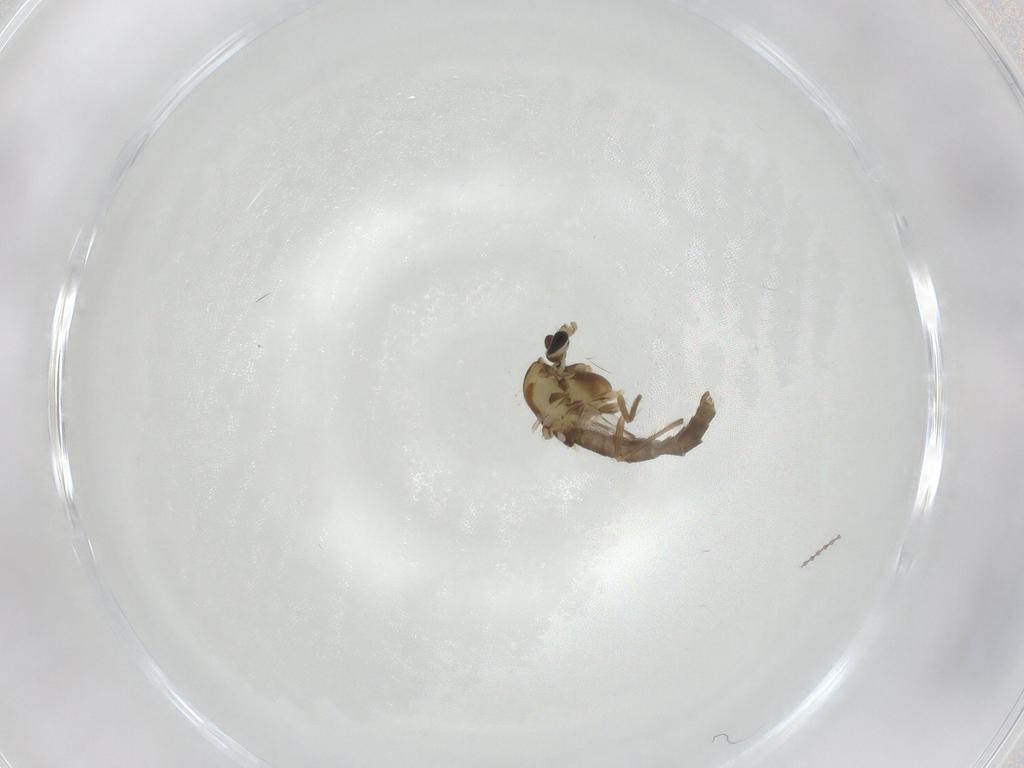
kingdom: Animalia
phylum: Arthropoda
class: Insecta
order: Diptera
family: Chironomidae
